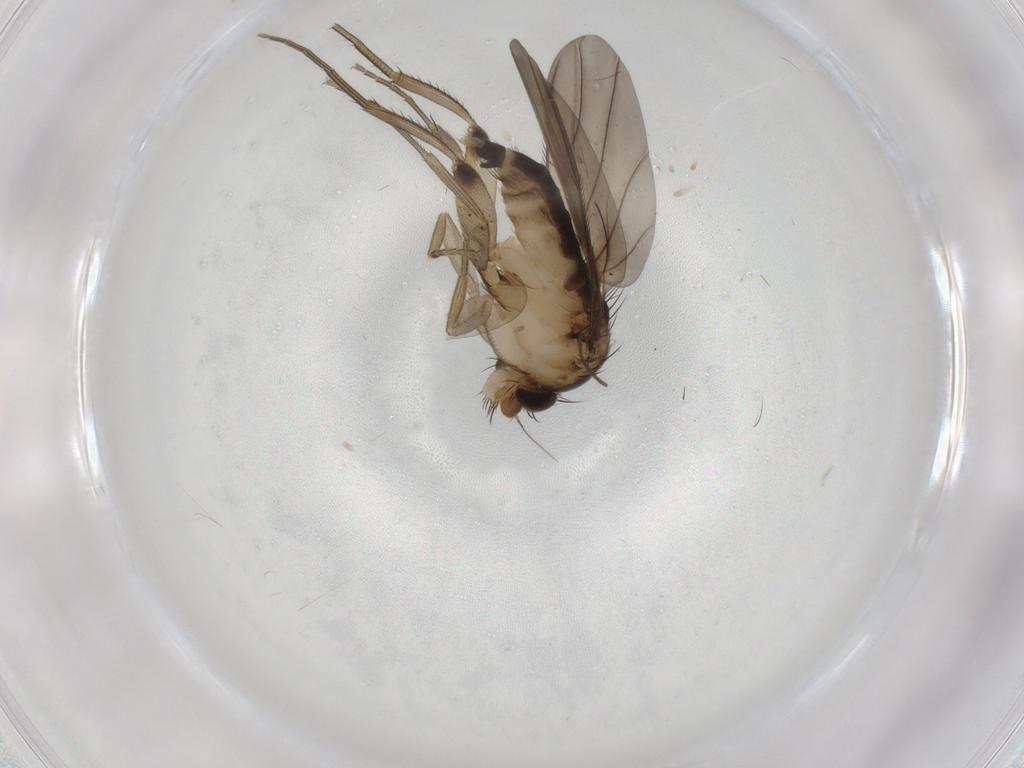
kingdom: Animalia
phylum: Arthropoda
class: Insecta
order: Diptera
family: Phoridae
